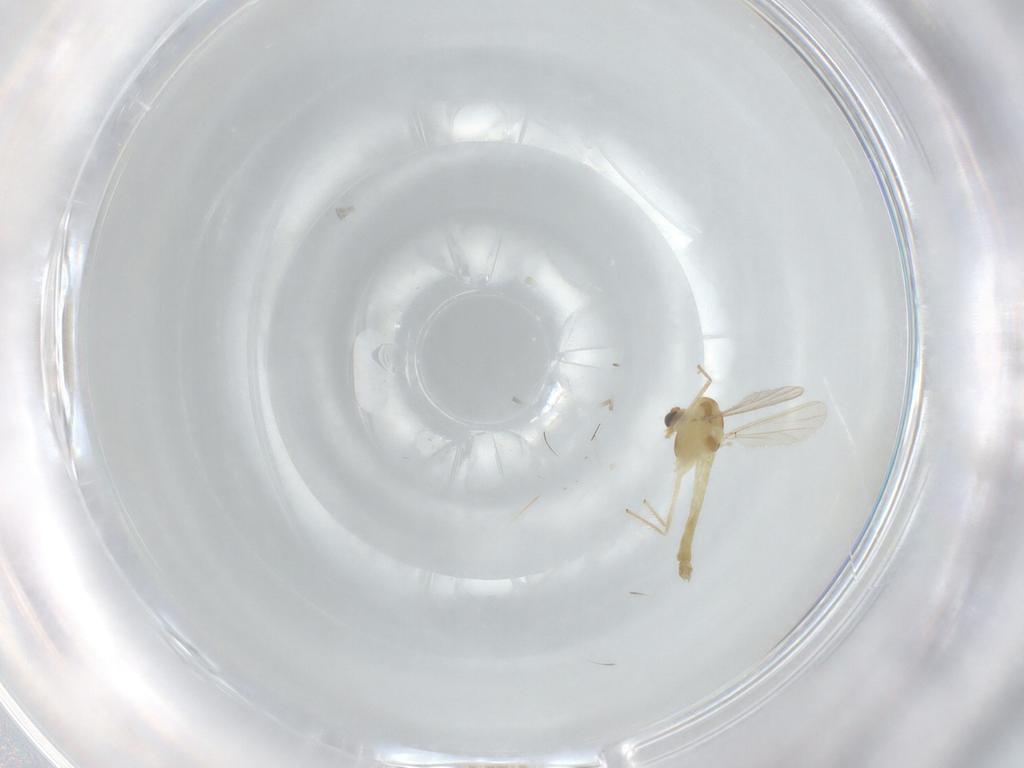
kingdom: Animalia
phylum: Arthropoda
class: Insecta
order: Diptera
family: Chironomidae
